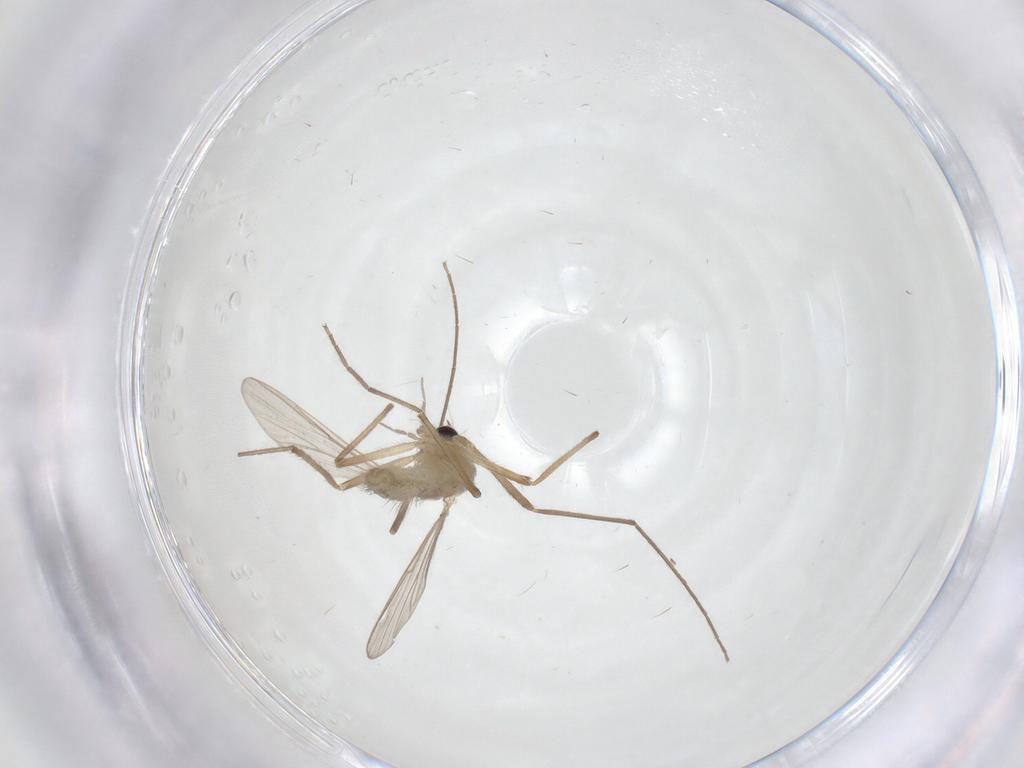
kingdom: Animalia
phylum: Arthropoda
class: Insecta
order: Diptera
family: Chironomidae
